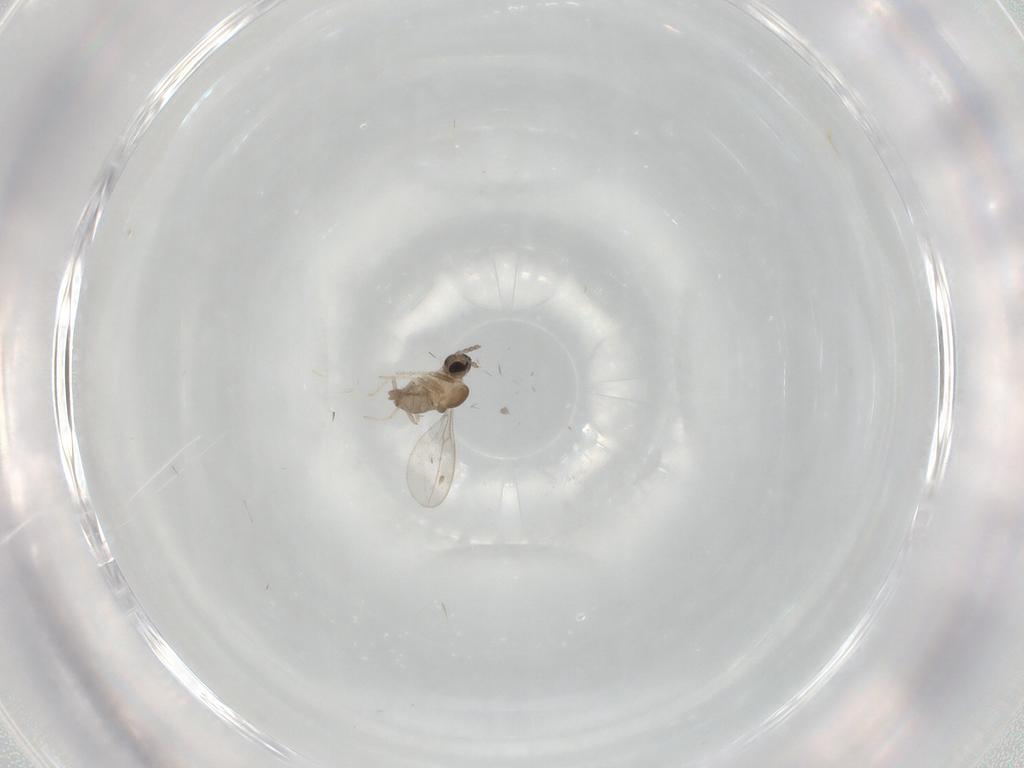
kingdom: Animalia
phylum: Arthropoda
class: Insecta
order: Diptera
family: Cecidomyiidae
